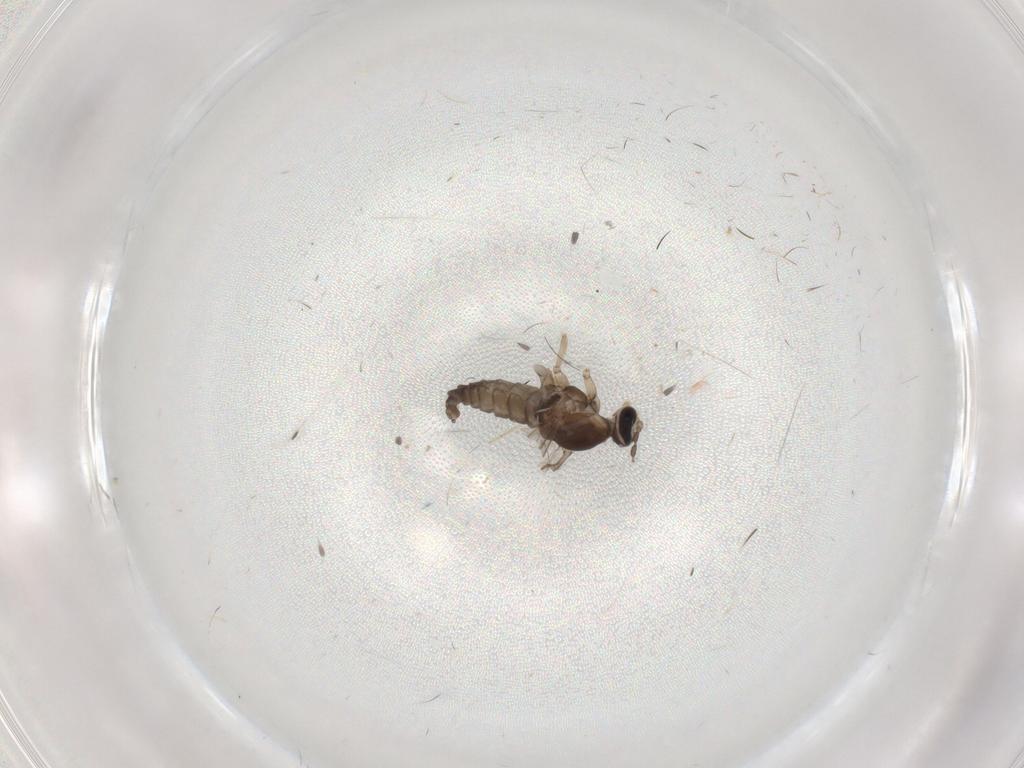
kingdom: Animalia
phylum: Arthropoda
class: Insecta
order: Diptera
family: Cecidomyiidae
